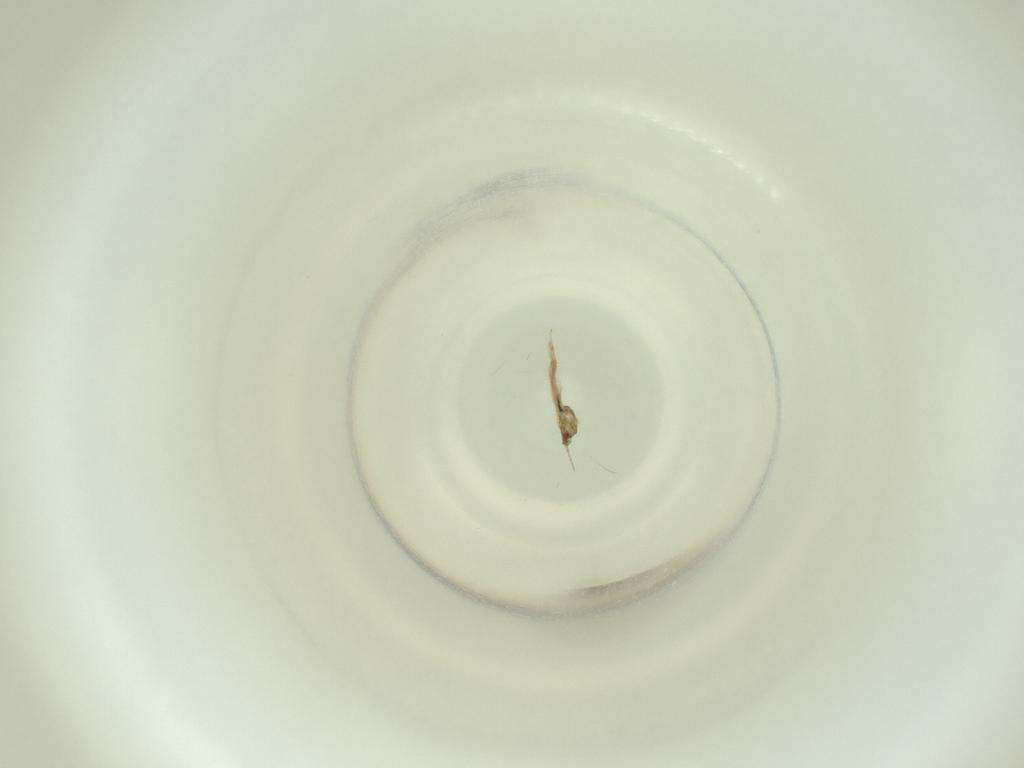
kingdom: Animalia
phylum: Arthropoda
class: Insecta
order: Diptera
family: Cecidomyiidae
